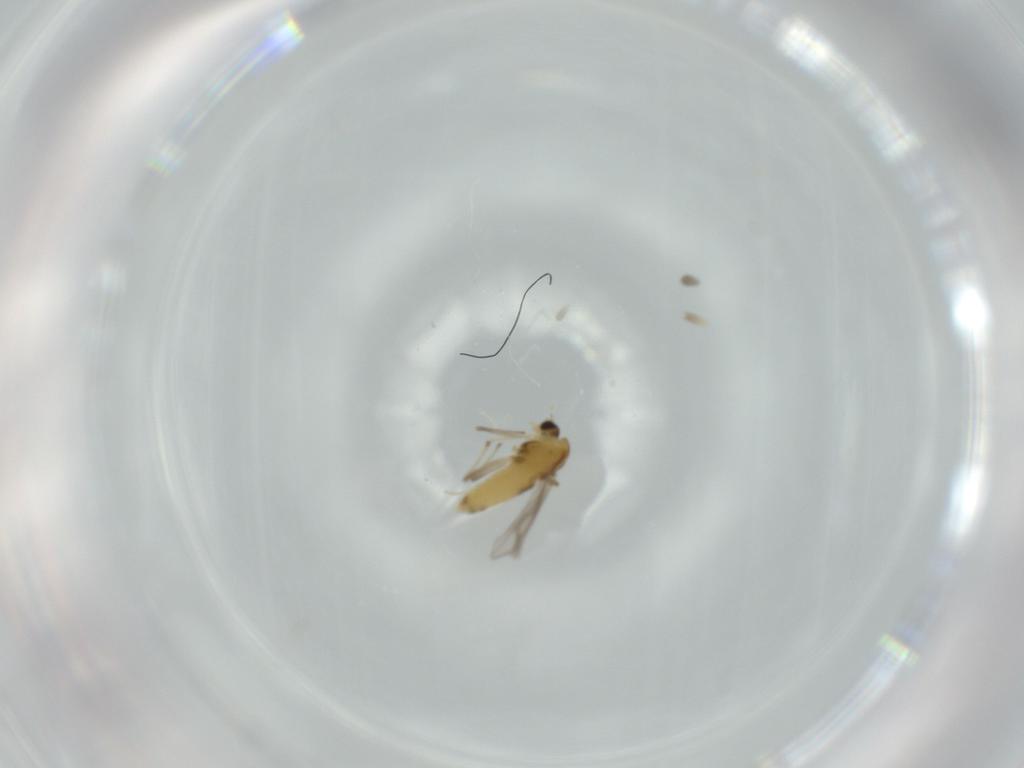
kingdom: Animalia
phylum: Arthropoda
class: Insecta
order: Diptera
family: Chironomidae
